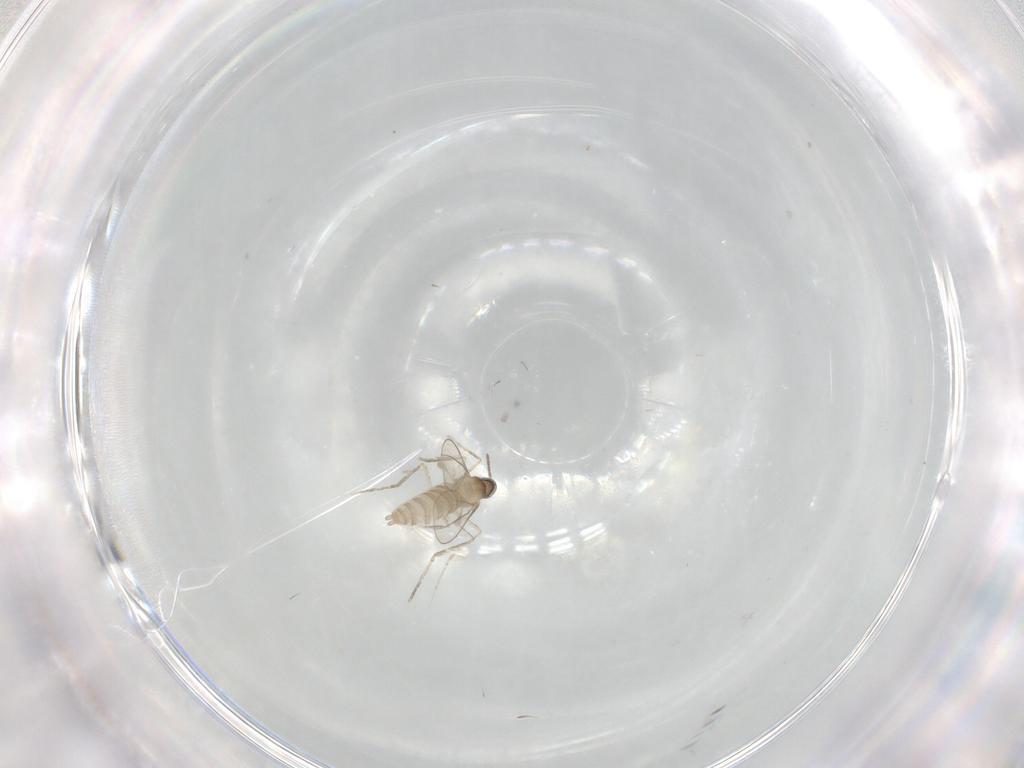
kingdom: Animalia
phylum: Arthropoda
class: Insecta
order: Diptera
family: Cecidomyiidae
